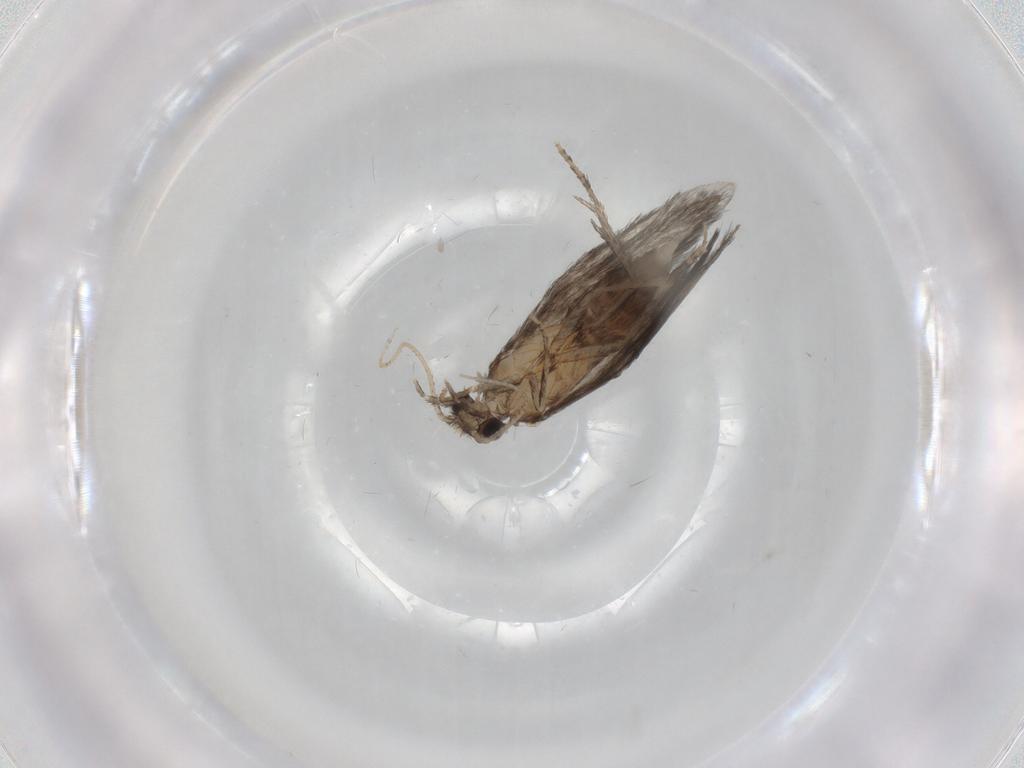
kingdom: Animalia
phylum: Arthropoda
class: Insecta
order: Trichoptera
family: Hydroptilidae
